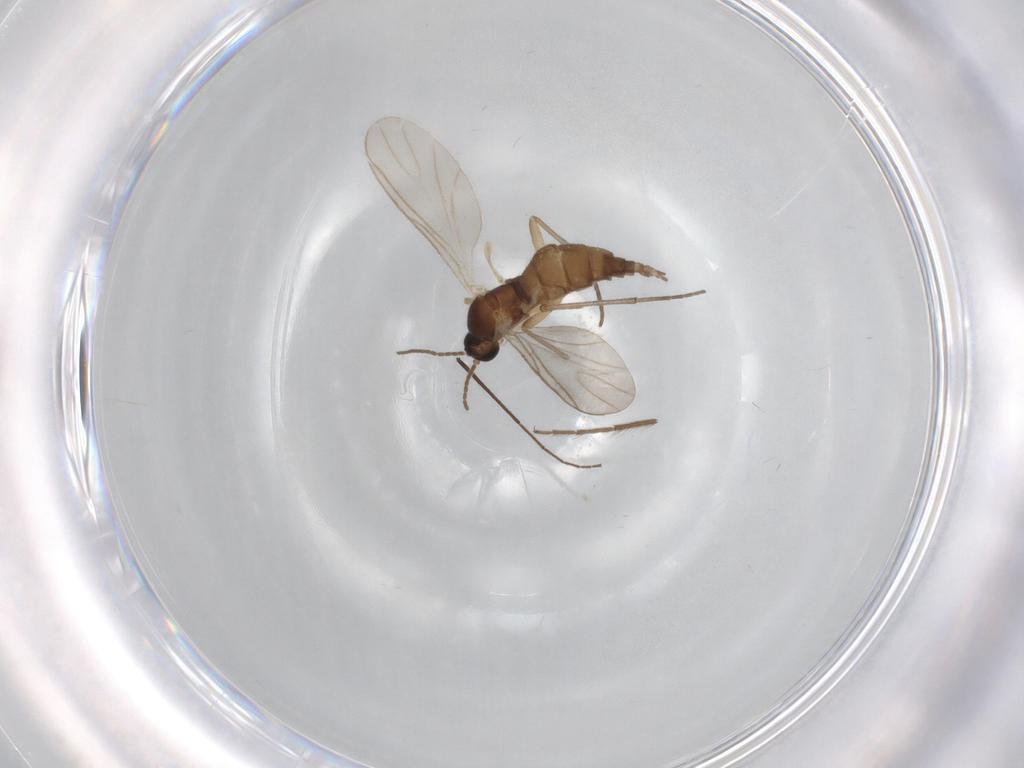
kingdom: Animalia
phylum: Arthropoda
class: Insecta
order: Diptera
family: Sciaridae
